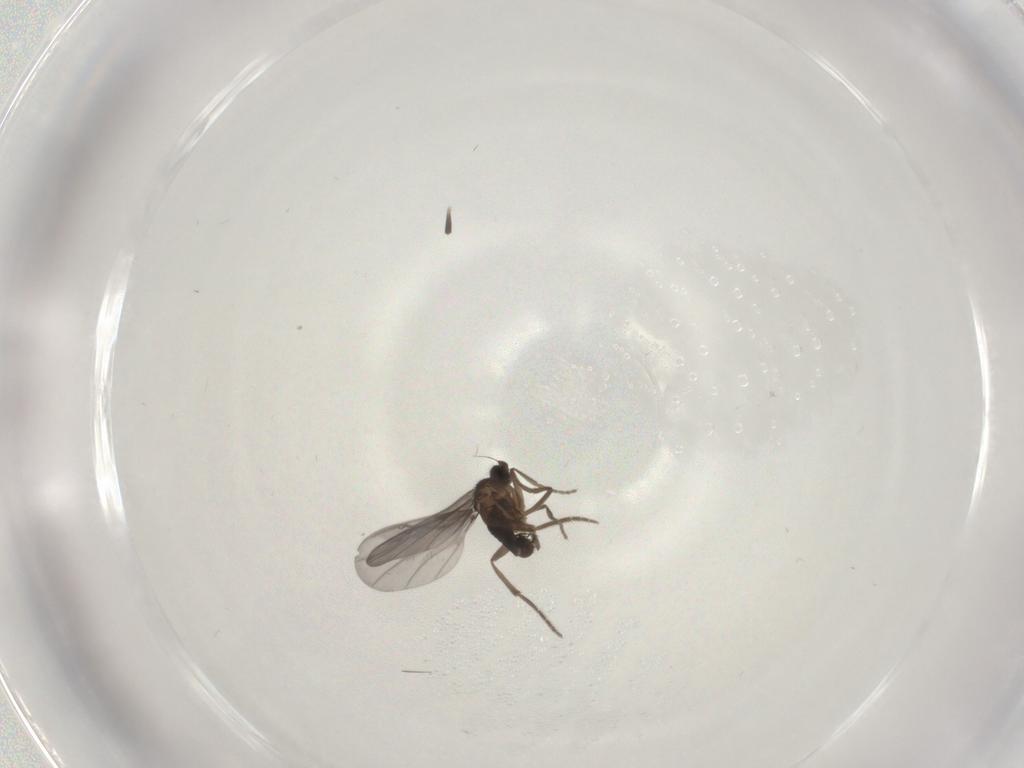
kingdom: Animalia
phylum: Arthropoda
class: Insecta
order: Diptera
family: Phoridae
